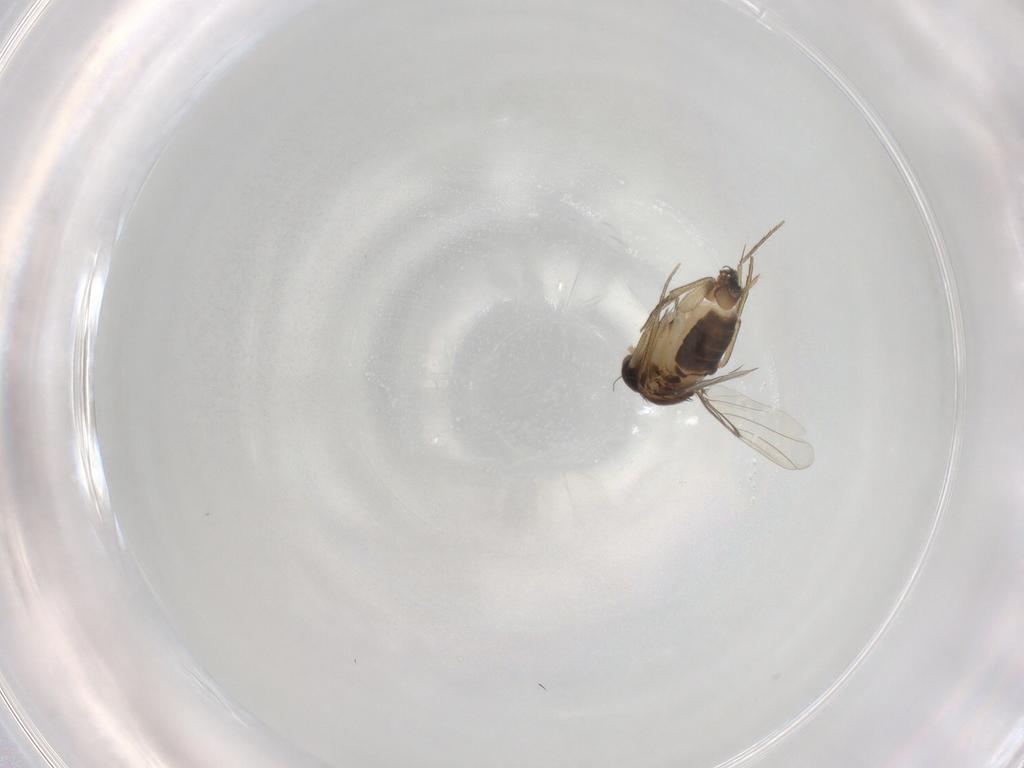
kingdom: Animalia
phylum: Arthropoda
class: Insecta
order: Diptera
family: Phoridae
